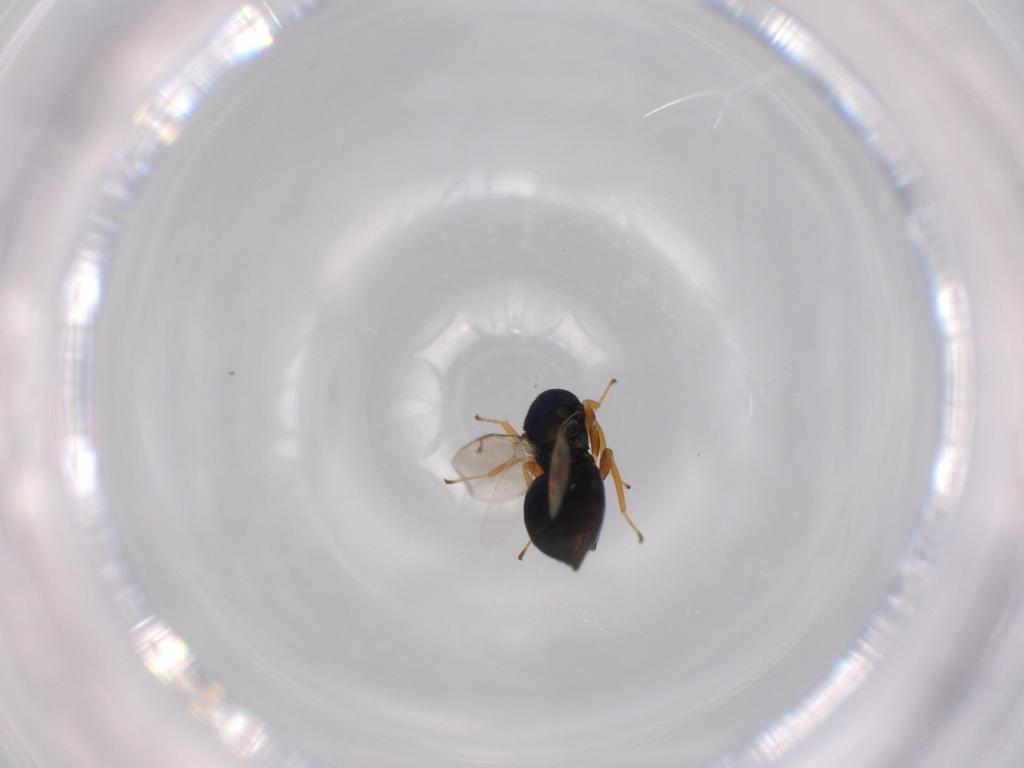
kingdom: Animalia
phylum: Arthropoda
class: Insecta
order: Hymenoptera
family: Pteromalidae
